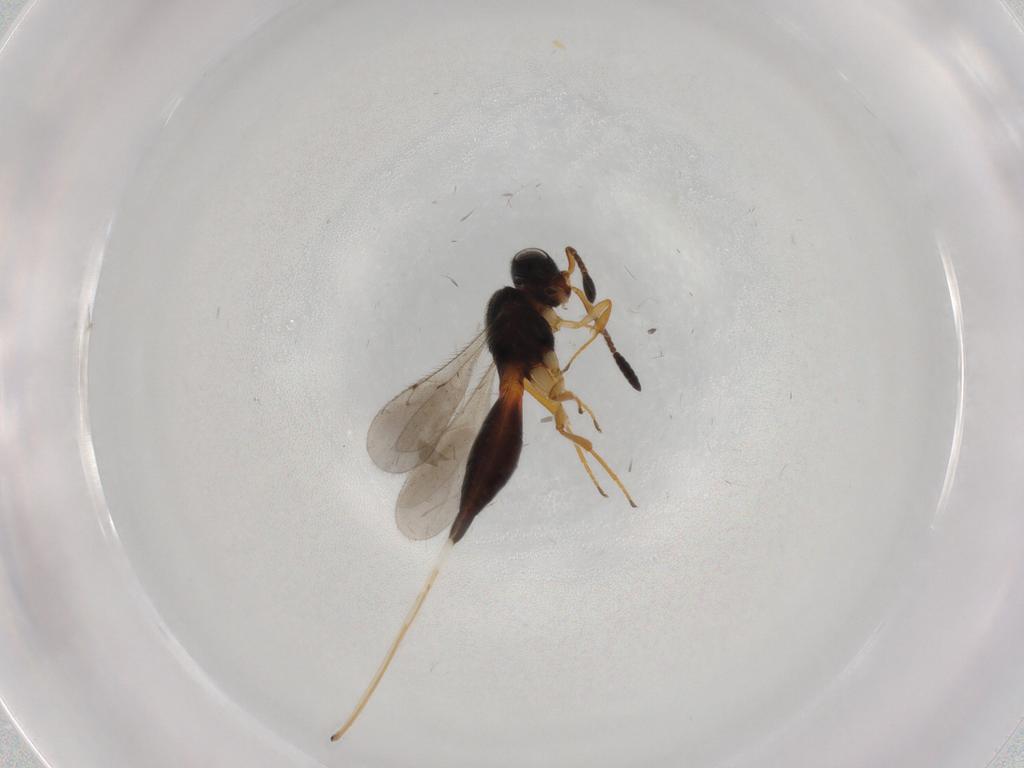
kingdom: Animalia
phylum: Arthropoda
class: Insecta
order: Hymenoptera
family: Scelionidae
